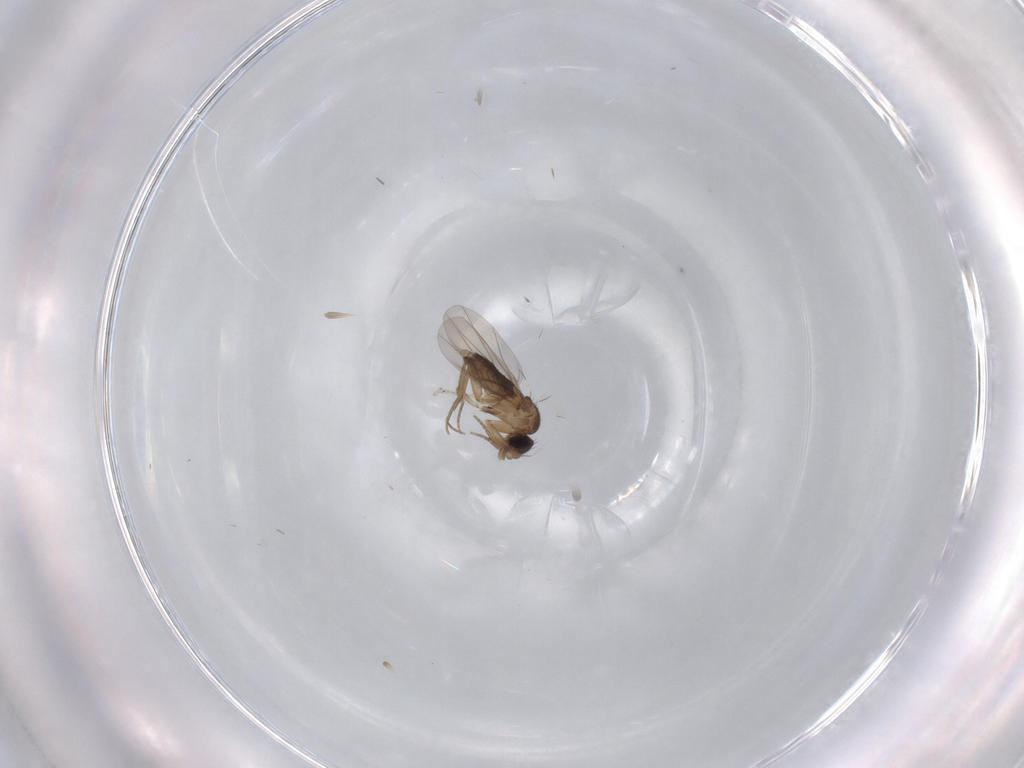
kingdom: Animalia
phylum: Arthropoda
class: Insecta
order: Diptera
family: Phoridae
